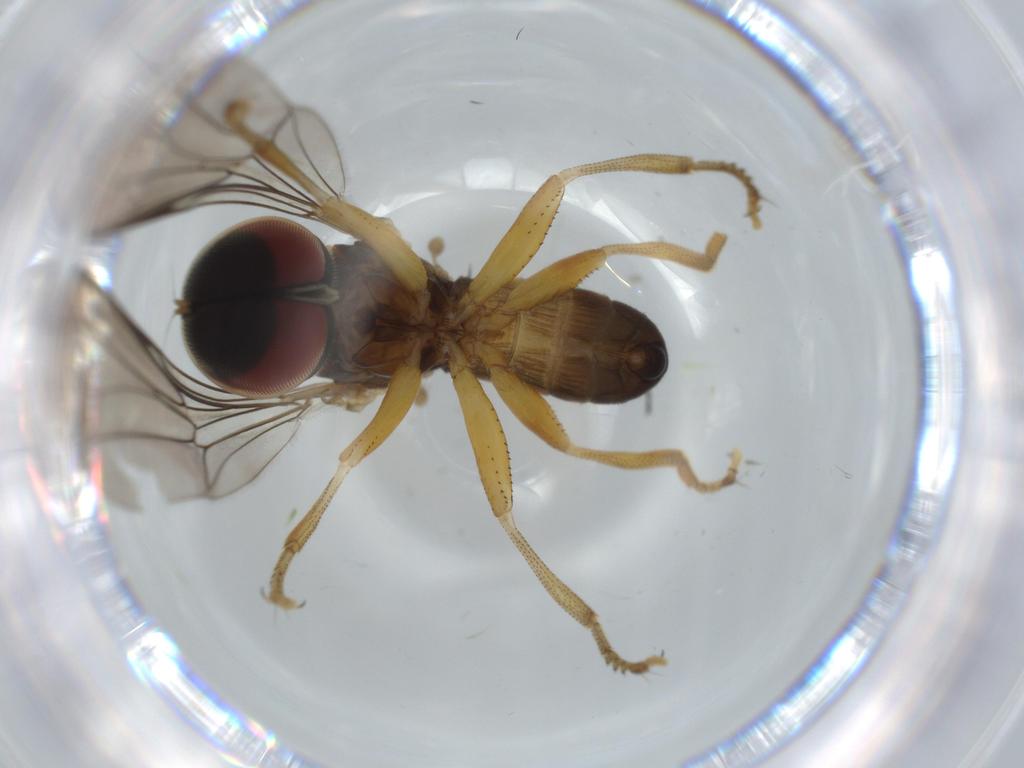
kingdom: Animalia
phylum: Arthropoda
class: Insecta
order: Diptera
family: Pipunculidae
